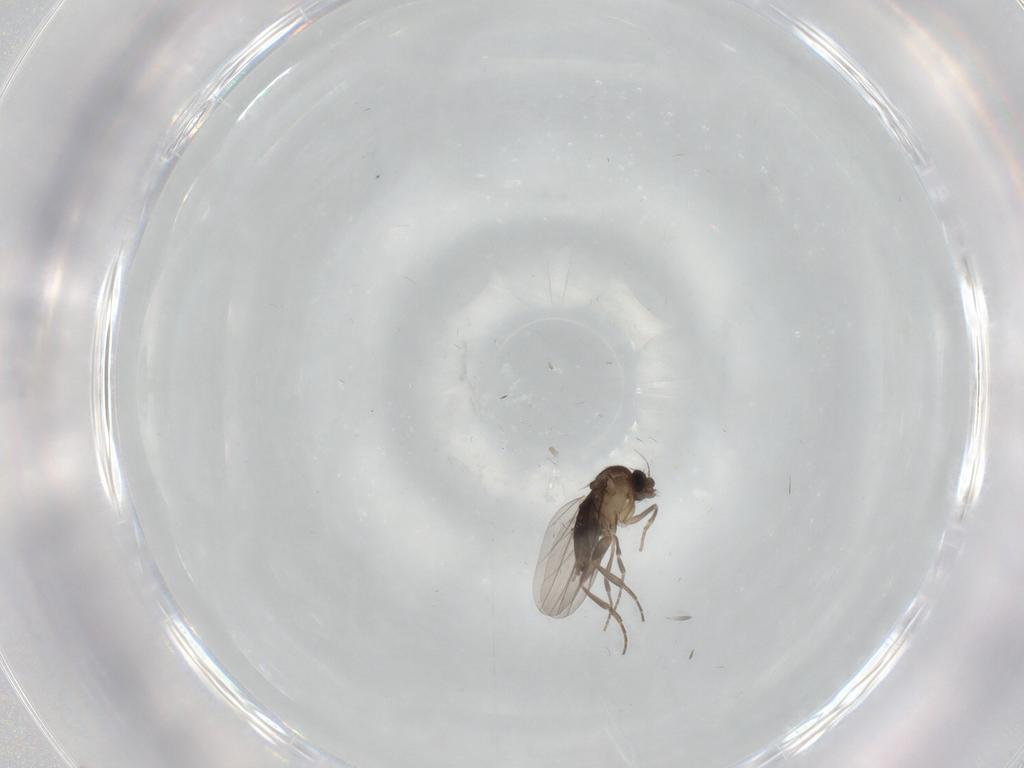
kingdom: Animalia
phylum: Arthropoda
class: Insecta
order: Diptera
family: Phoridae
